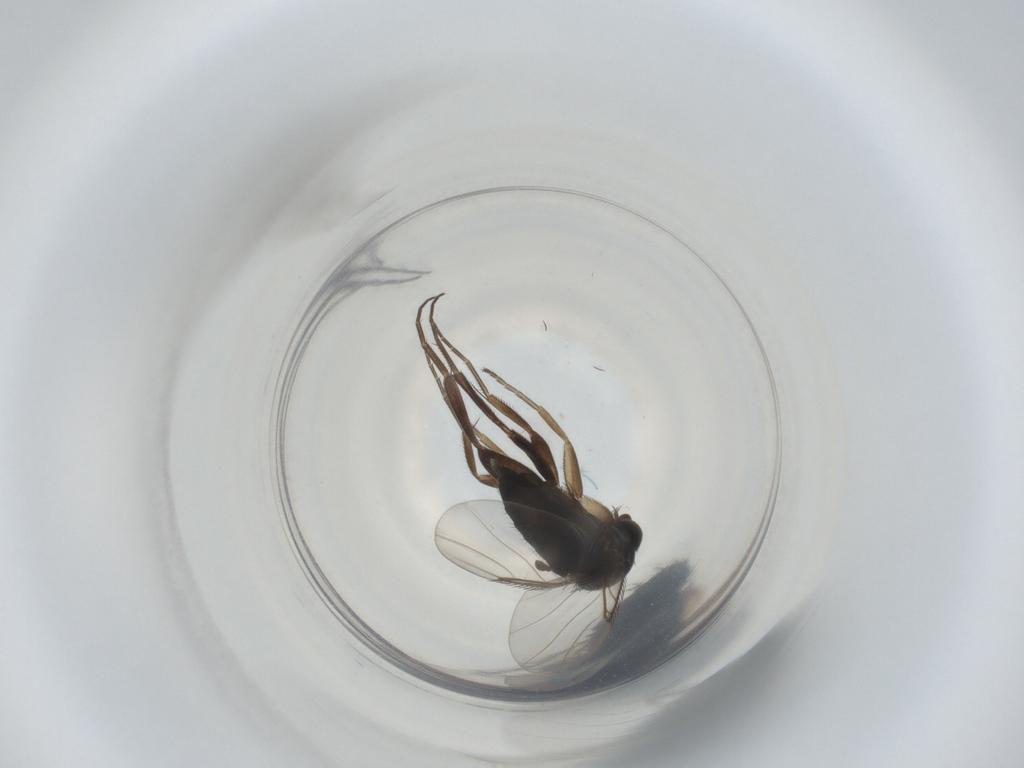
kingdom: Animalia
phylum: Arthropoda
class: Insecta
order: Diptera
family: Phoridae
